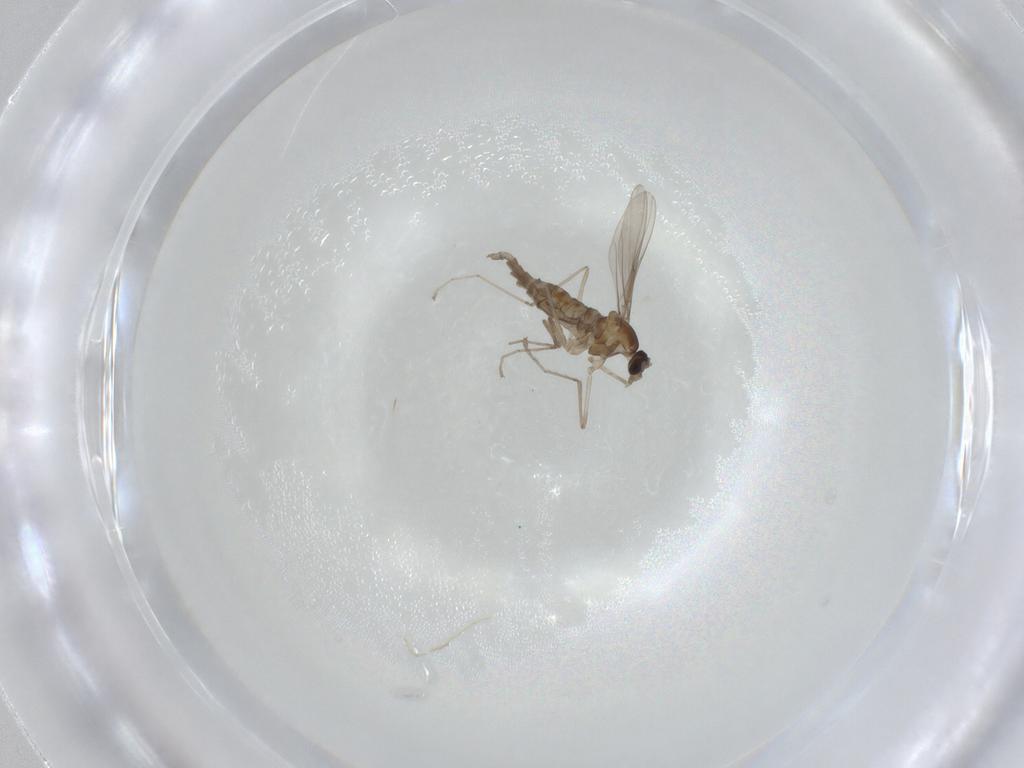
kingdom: Animalia
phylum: Arthropoda
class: Insecta
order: Diptera
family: Cecidomyiidae
